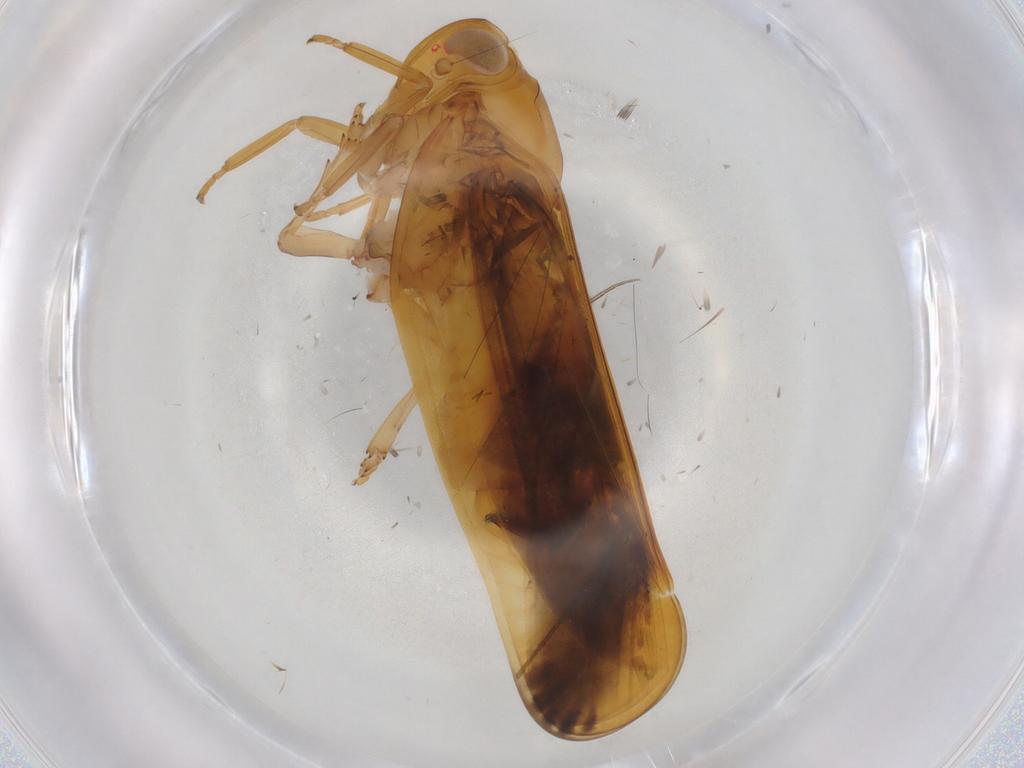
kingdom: Animalia
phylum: Arthropoda
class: Insecta
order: Hemiptera
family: Nogodinidae
